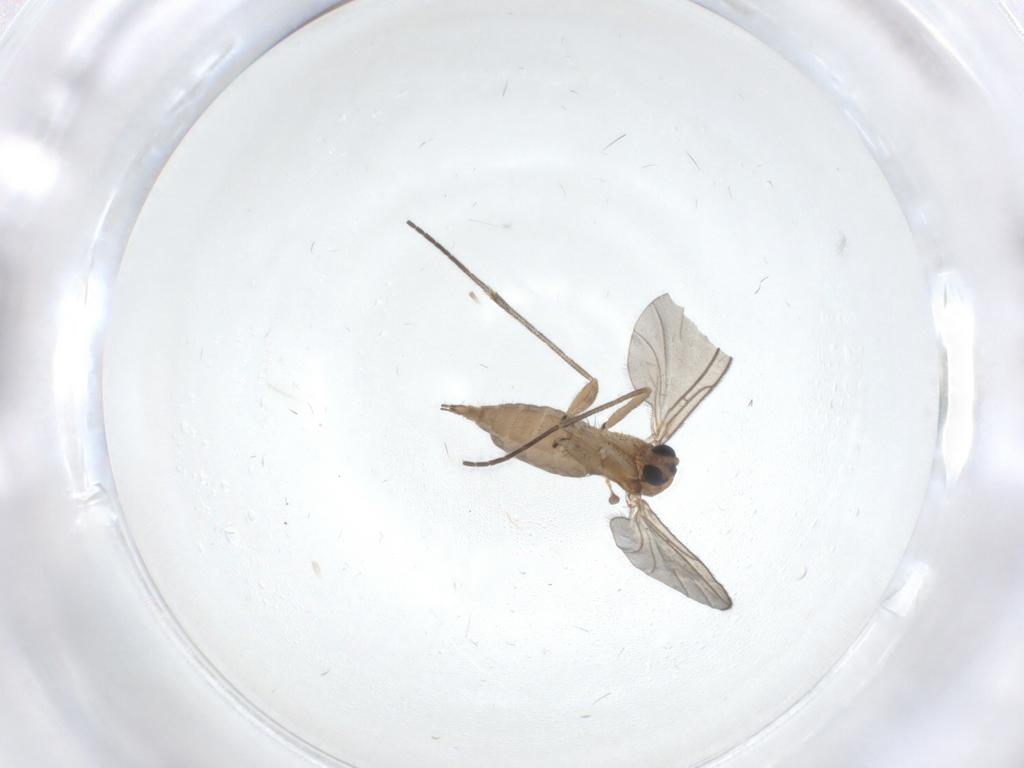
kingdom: Animalia
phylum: Arthropoda
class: Insecta
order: Diptera
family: Sciaridae
